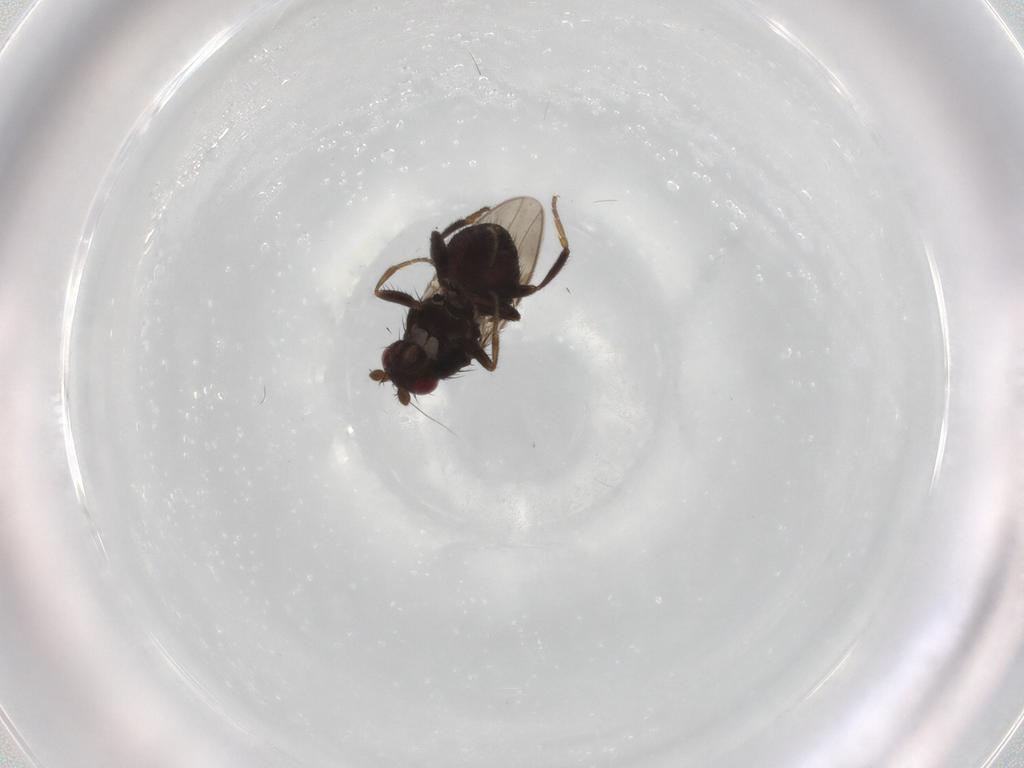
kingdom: Animalia
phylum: Arthropoda
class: Insecta
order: Diptera
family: Sphaeroceridae
